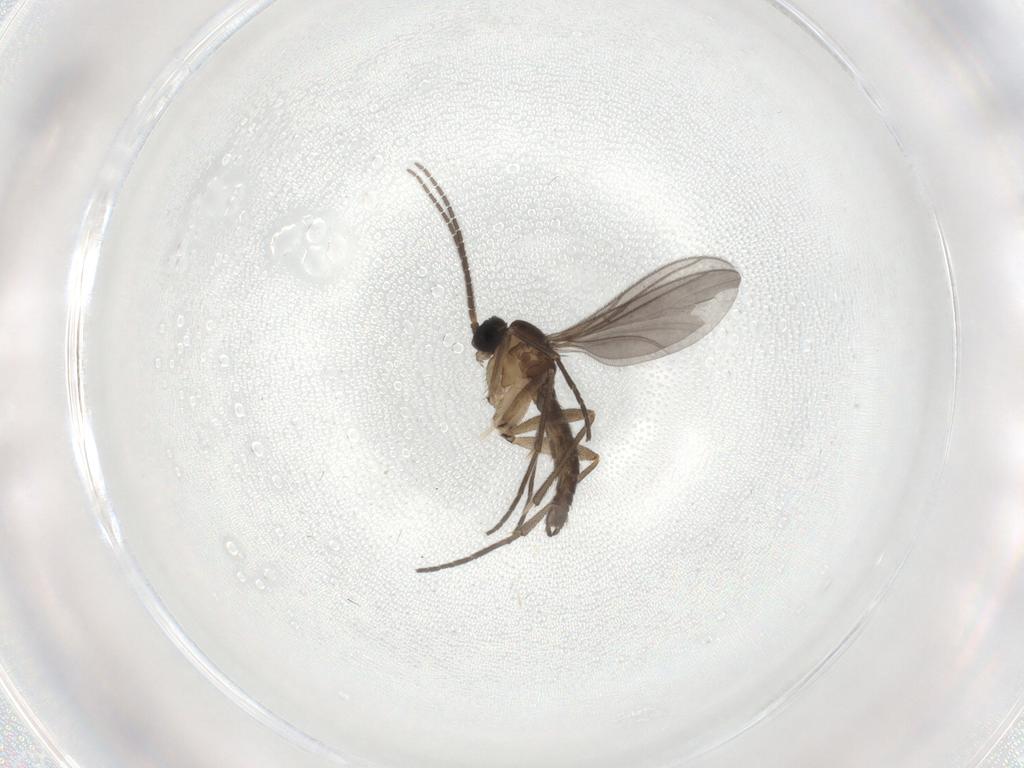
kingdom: Animalia
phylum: Arthropoda
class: Insecta
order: Diptera
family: Sciaridae
